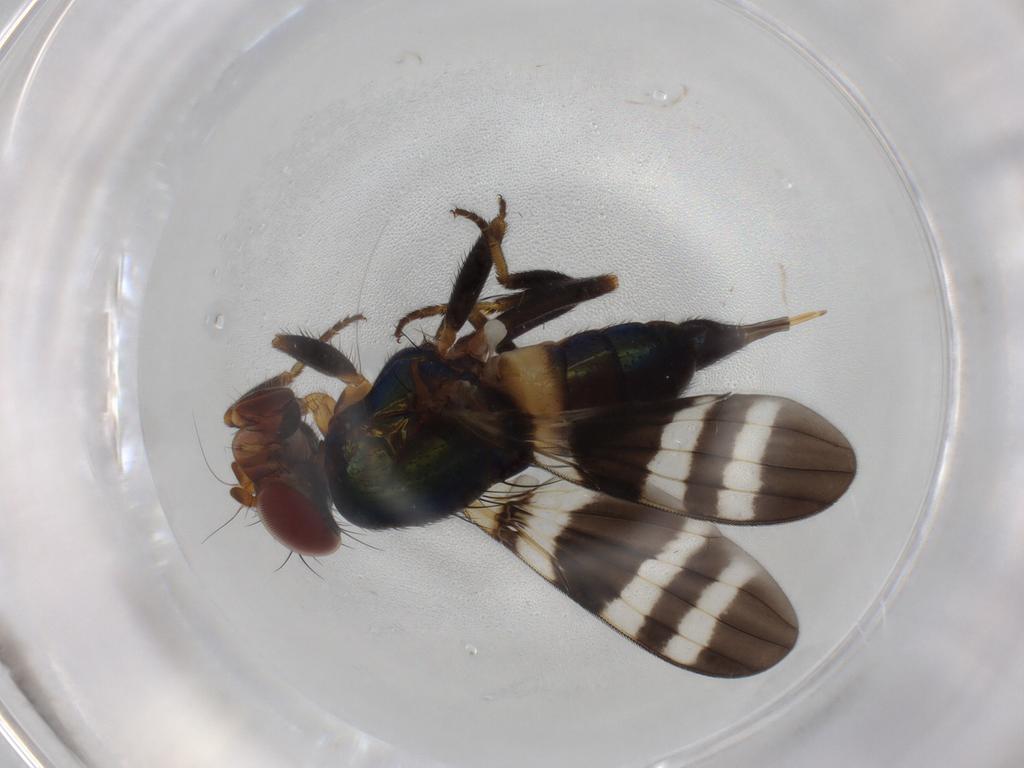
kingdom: Animalia
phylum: Arthropoda
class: Insecta
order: Diptera
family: Ulidiidae
